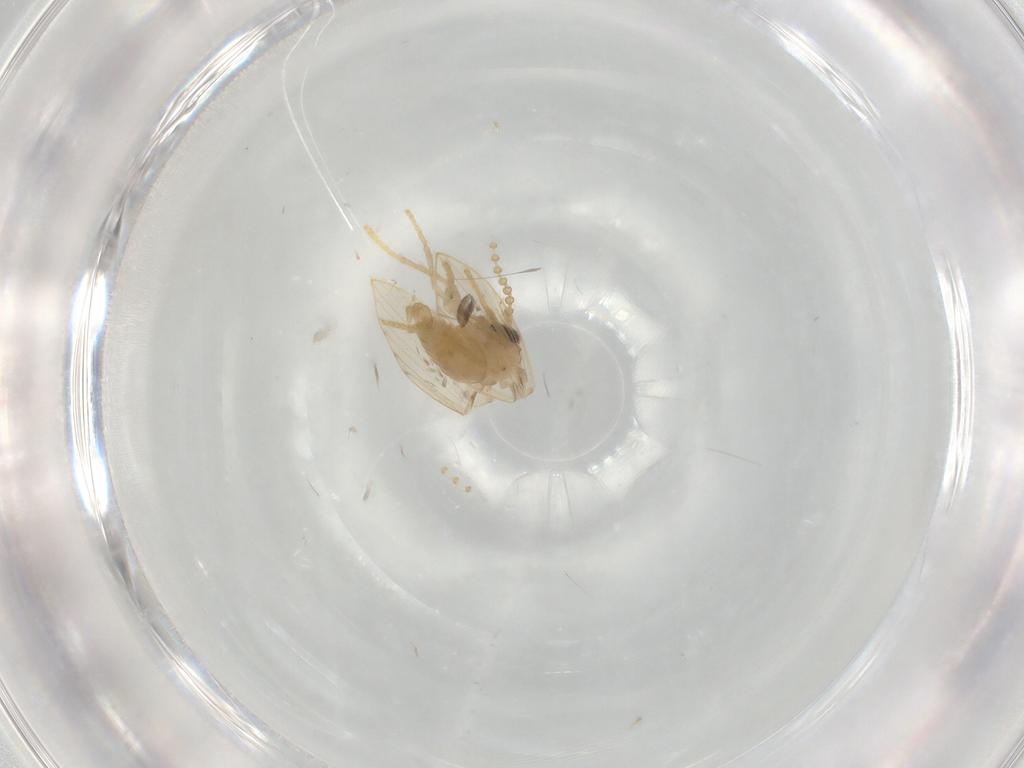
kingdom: Animalia
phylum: Arthropoda
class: Insecta
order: Diptera
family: Psychodidae
